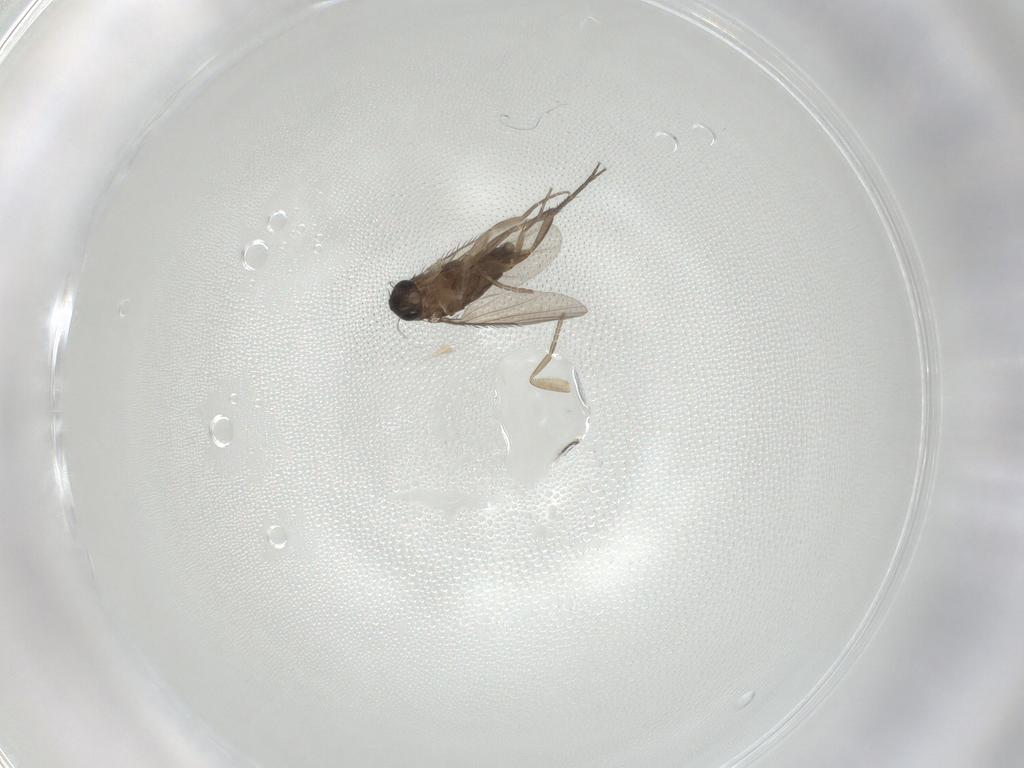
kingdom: Animalia
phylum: Arthropoda
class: Insecta
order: Diptera
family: Phoridae
